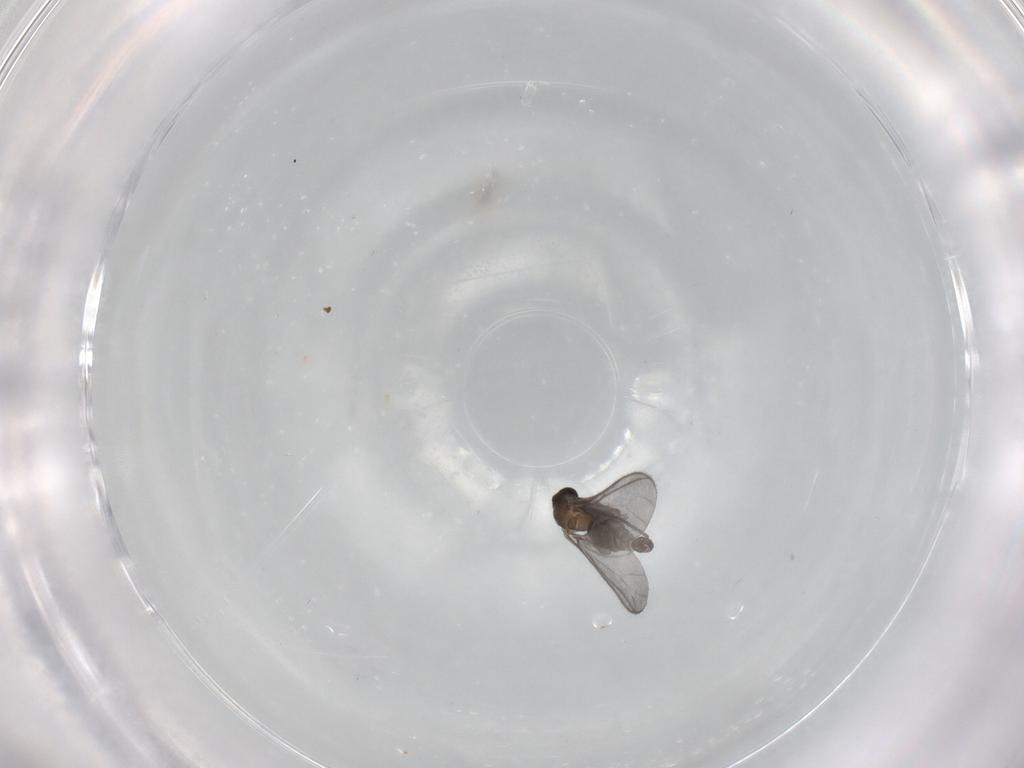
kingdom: Animalia
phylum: Arthropoda
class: Insecta
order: Diptera
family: Sciaridae
